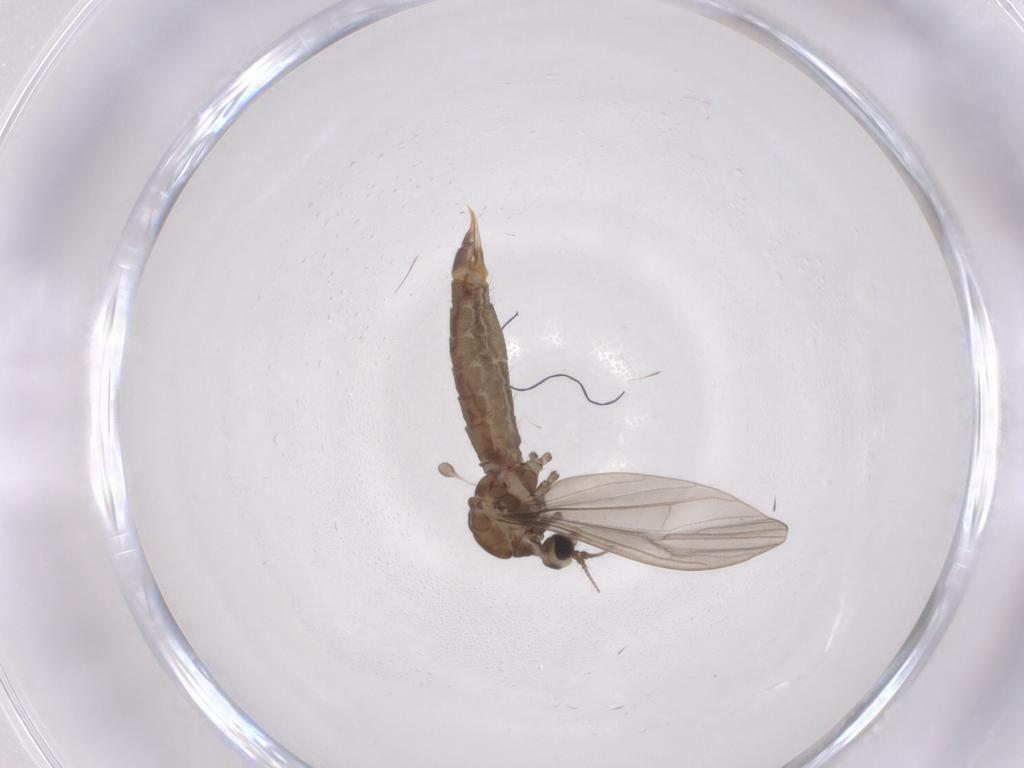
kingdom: Animalia
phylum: Arthropoda
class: Insecta
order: Diptera
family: Limoniidae
